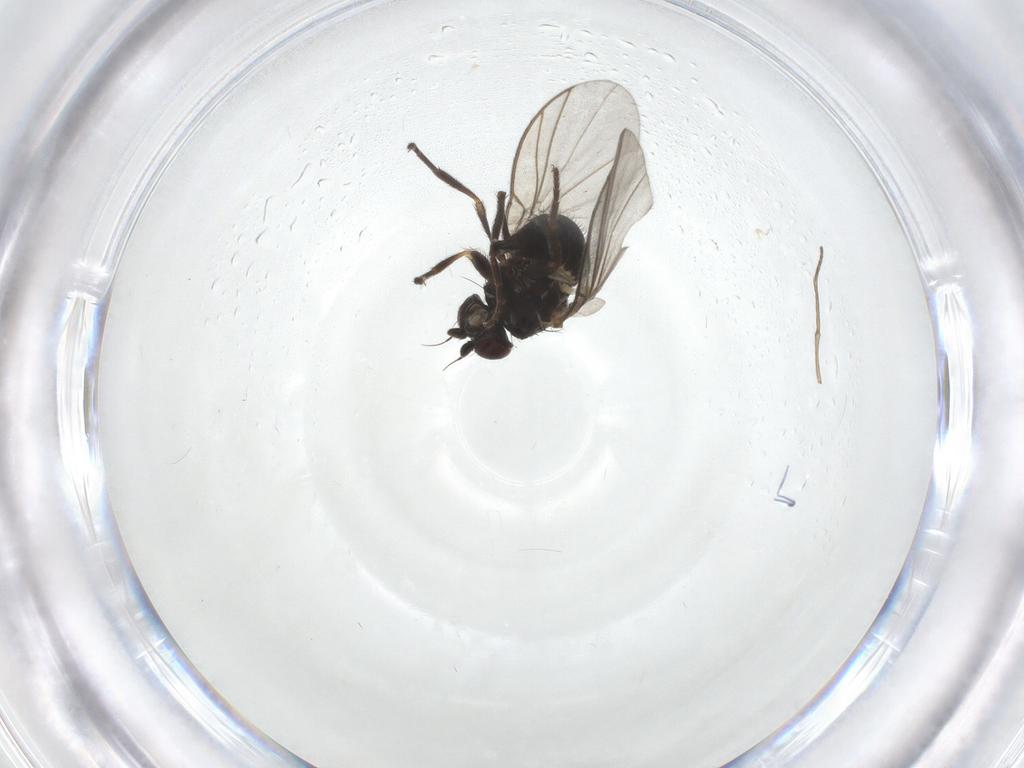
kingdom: Animalia
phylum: Arthropoda
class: Insecta
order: Diptera
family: Agromyzidae
